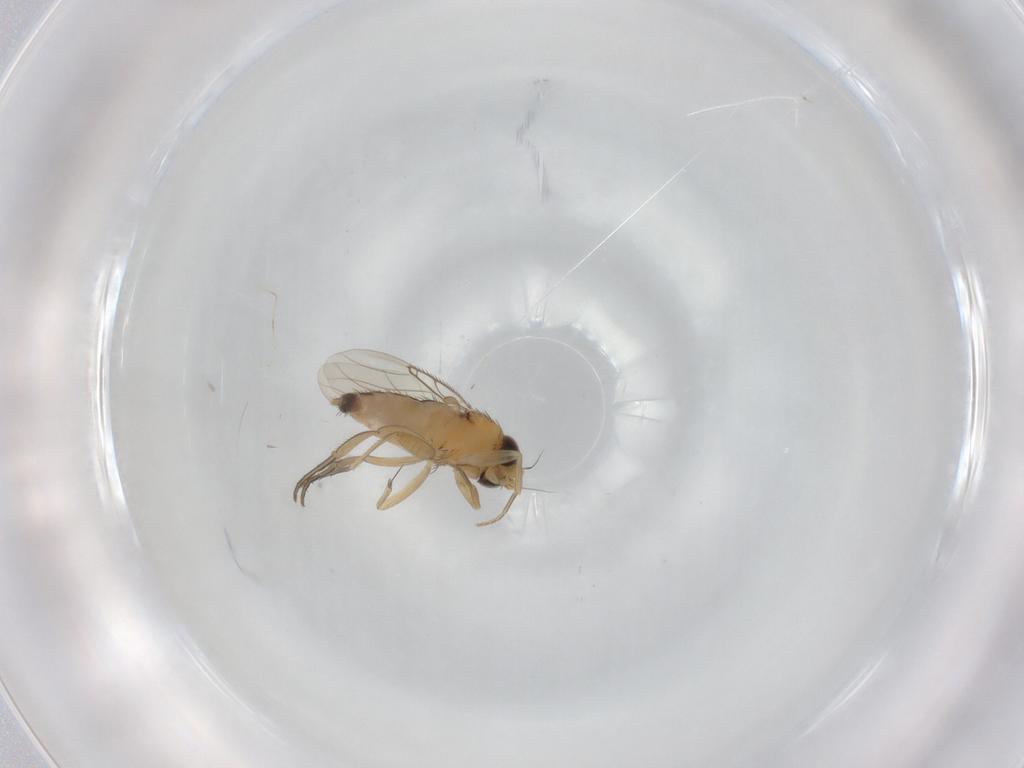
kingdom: Animalia
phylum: Arthropoda
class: Insecta
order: Diptera
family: Phoridae
